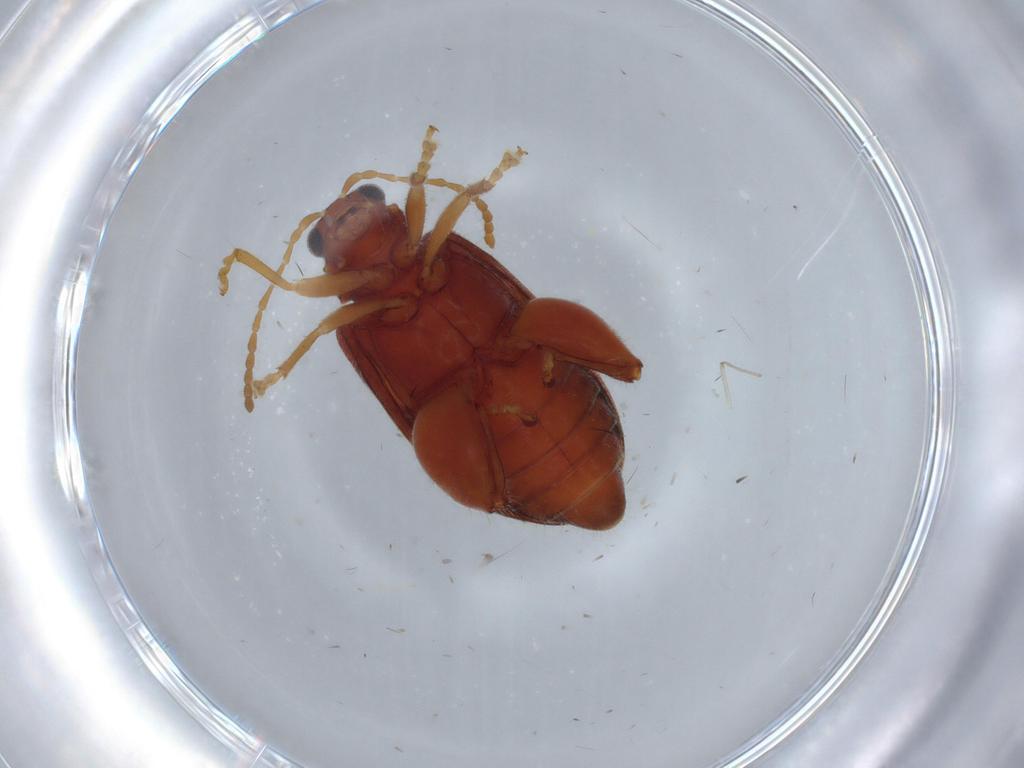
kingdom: Animalia
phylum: Arthropoda
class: Insecta
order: Coleoptera
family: Chrysomelidae
